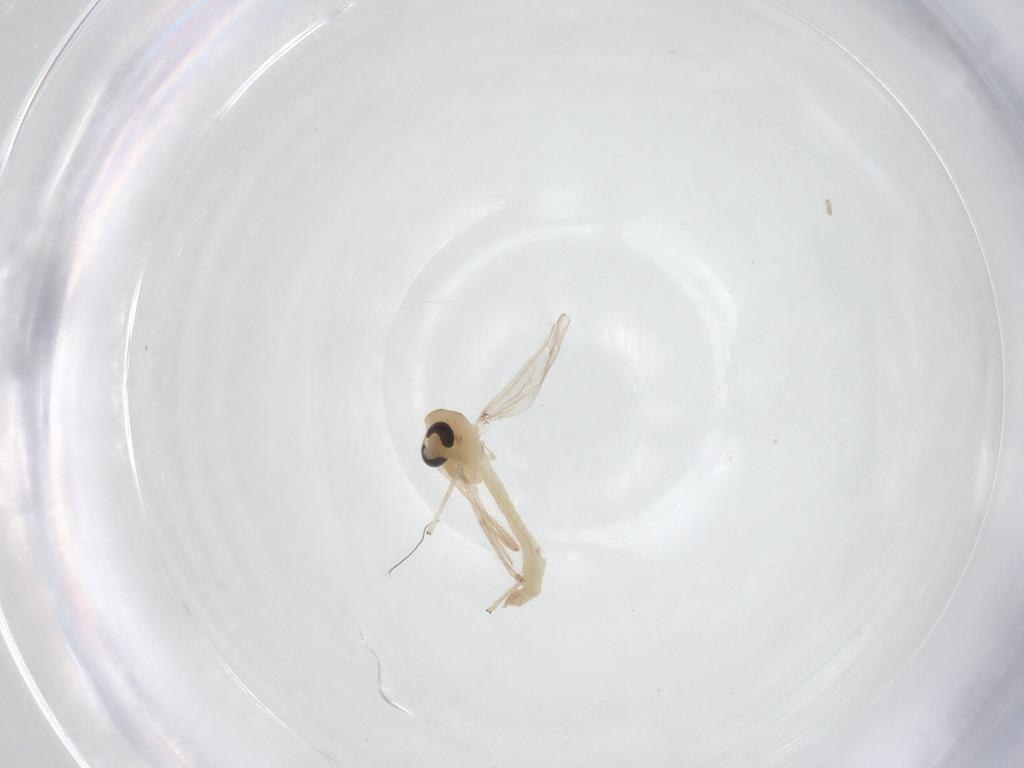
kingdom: Animalia
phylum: Arthropoda
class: Insecta
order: Diptera
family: Chironomidae
